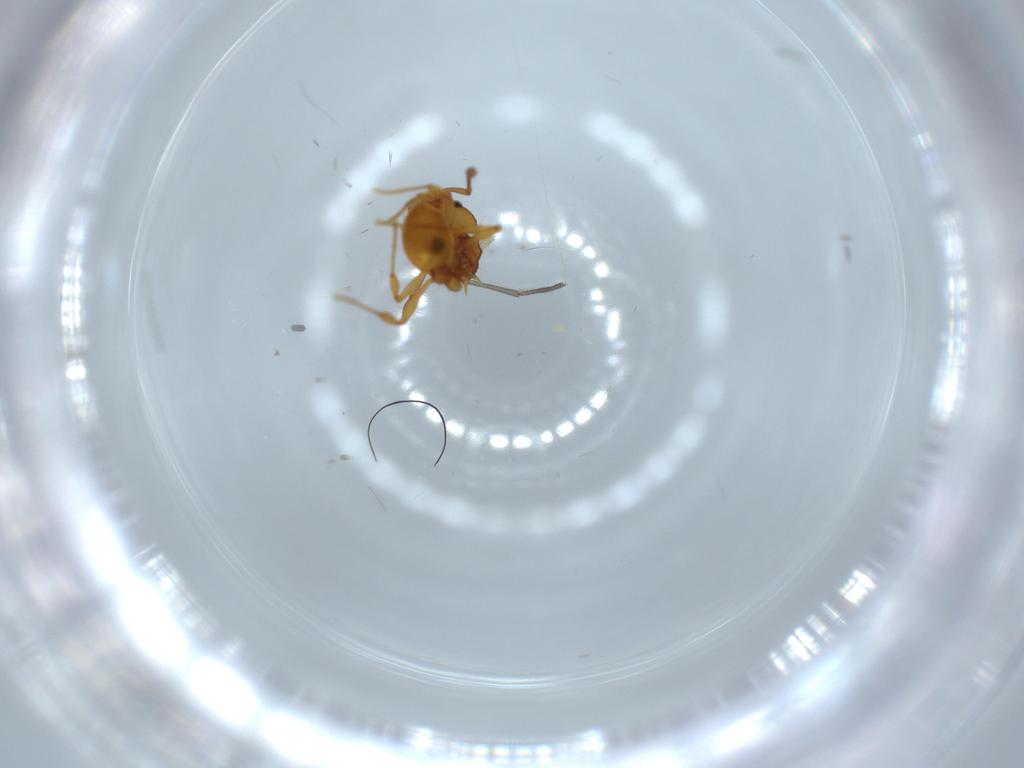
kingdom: Animalia
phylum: Arthropoda
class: Insecta
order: Hymenoptera
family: Formicidae
